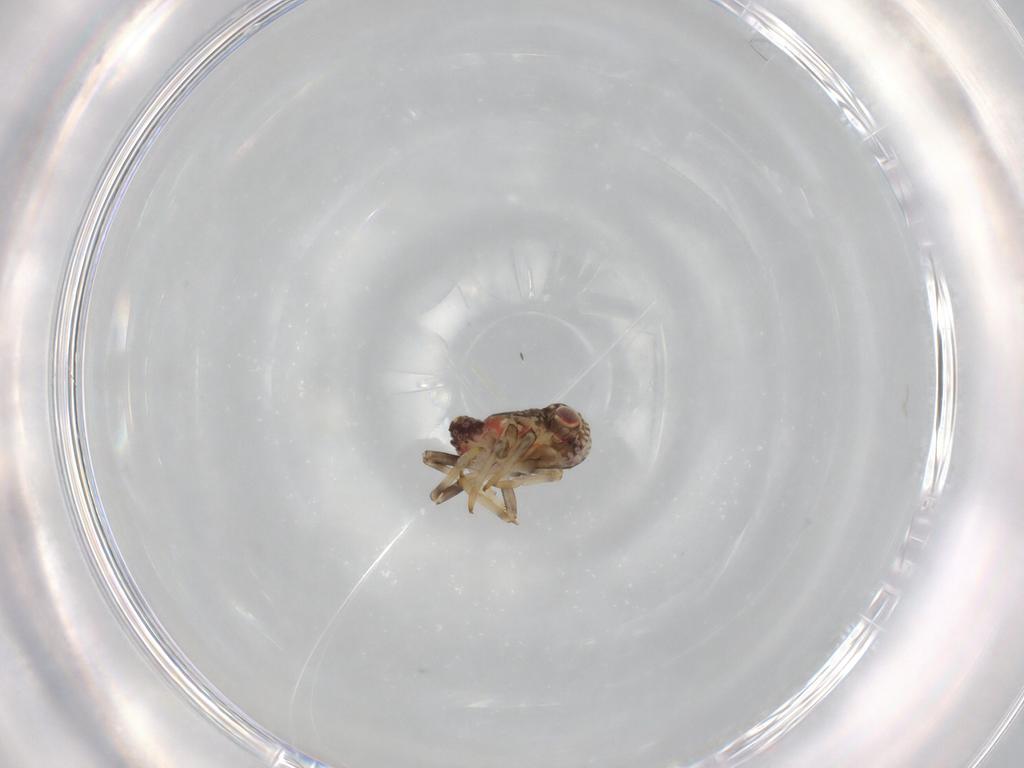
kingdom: Animalia
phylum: Arthropoda
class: Insecta
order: Hemiptera
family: Tropiduchidae
